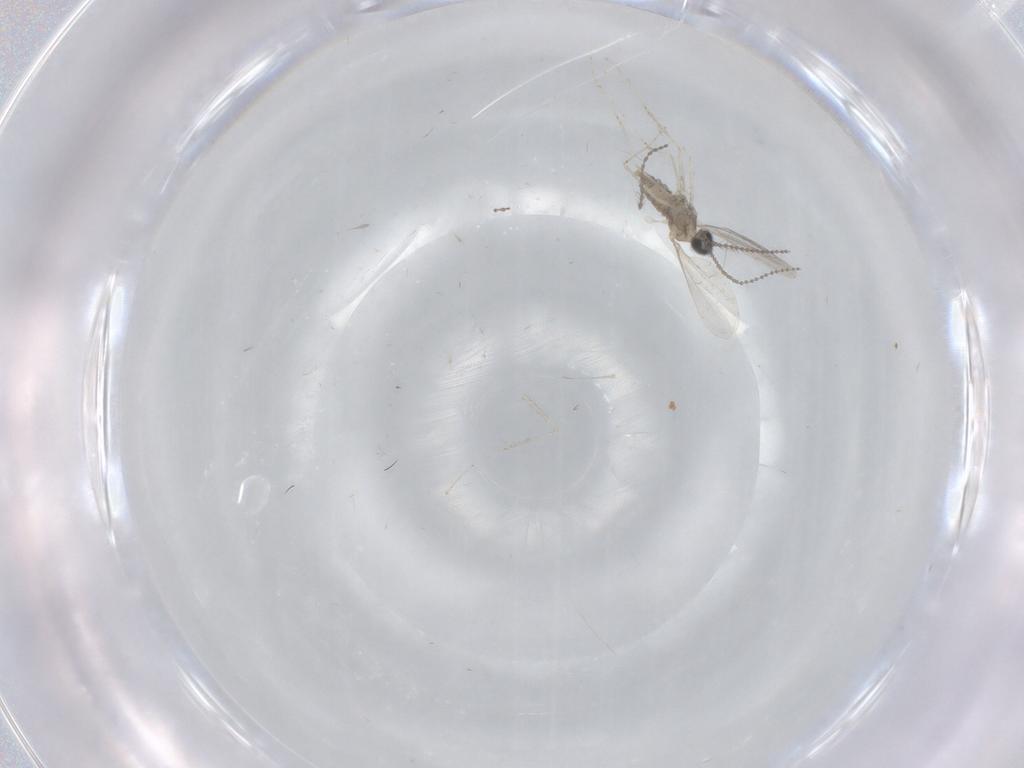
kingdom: Animalia
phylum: Arthropoda
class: Insecta
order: Diptera
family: Cecidomyiidae
